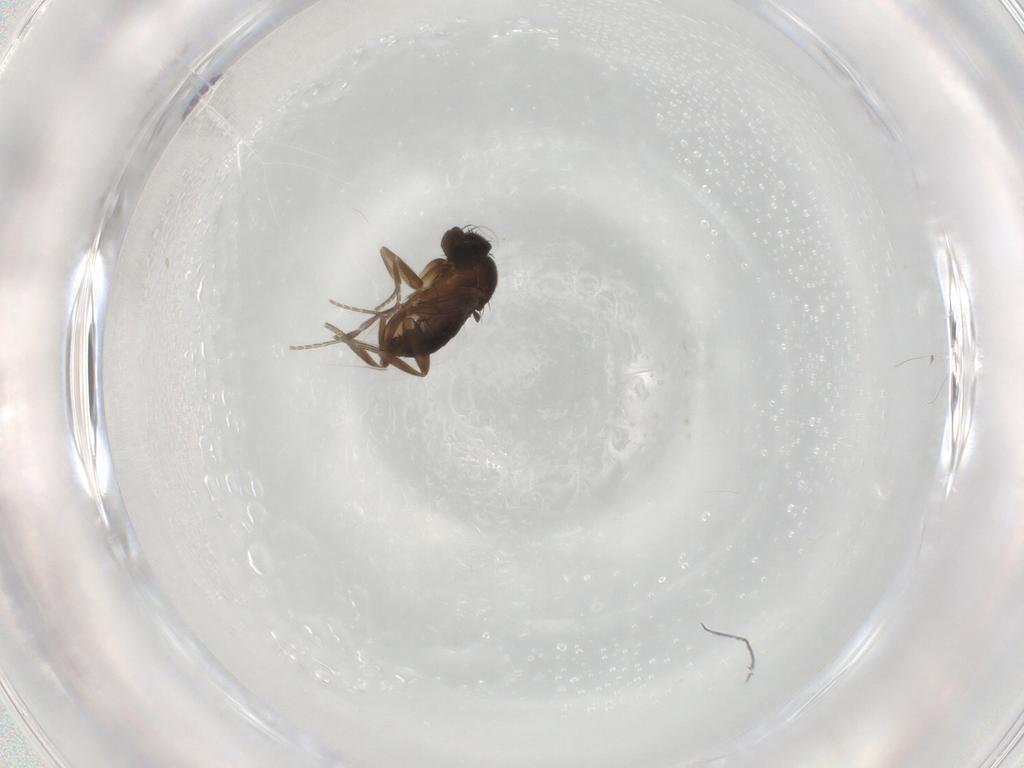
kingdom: Animalia
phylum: Arthropoda
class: Insecta
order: Diptera
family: Phoridae
